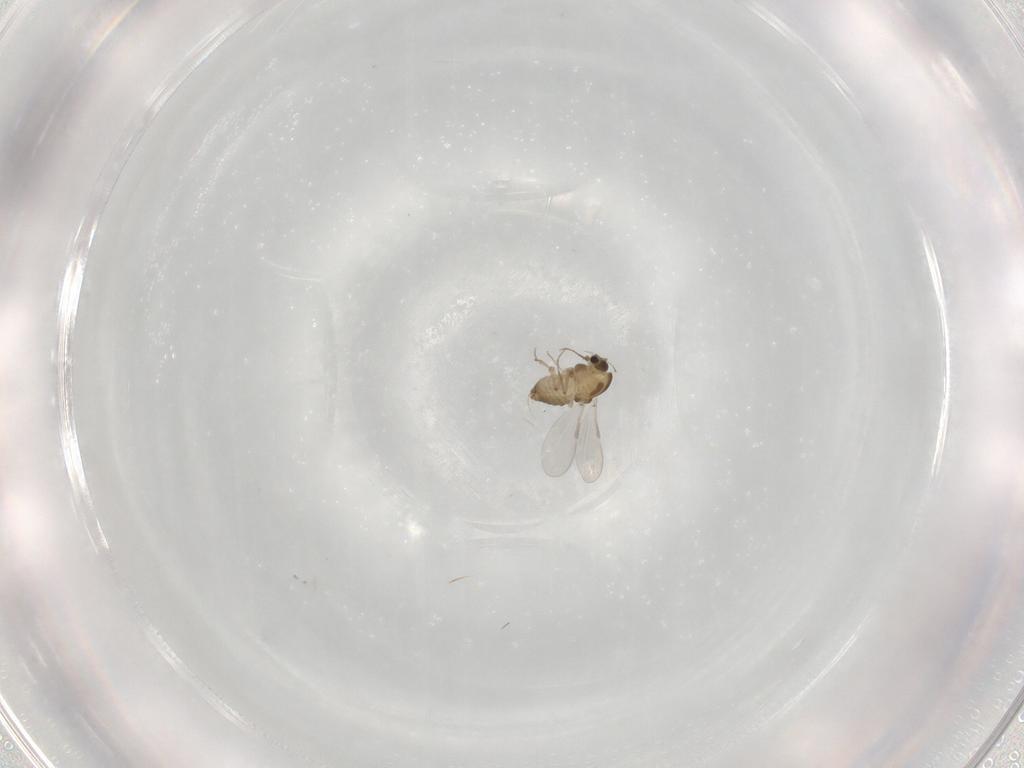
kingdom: Animalia
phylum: Arthropoda
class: Insecta
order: Diptera
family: Chironomidae
